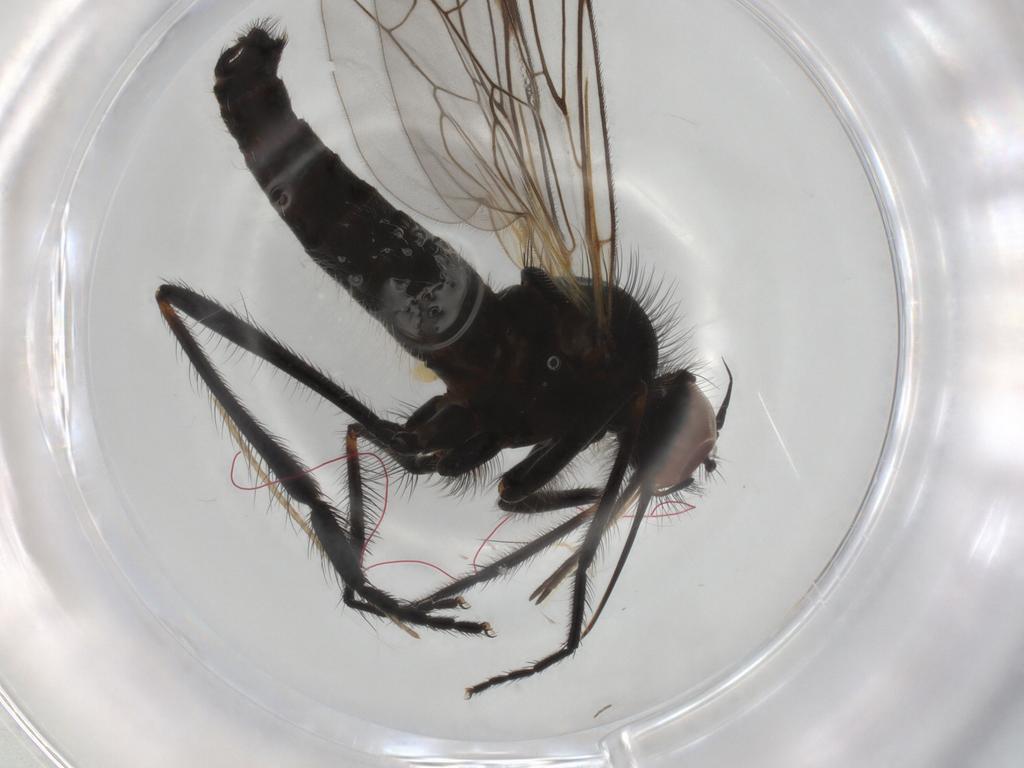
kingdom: Animalia
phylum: Arthropoda
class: Insecta
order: Diptera
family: Empididae
